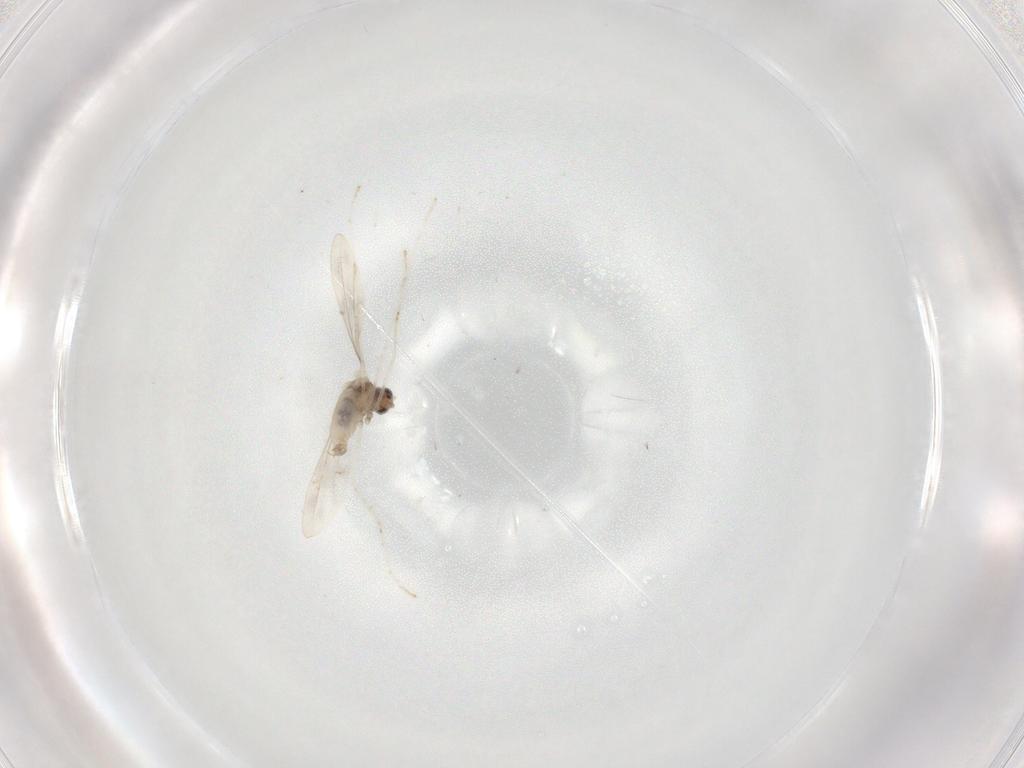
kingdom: Animalia
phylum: Arthropoda
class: Insecta
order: Diptera
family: Cecidomyiidae
